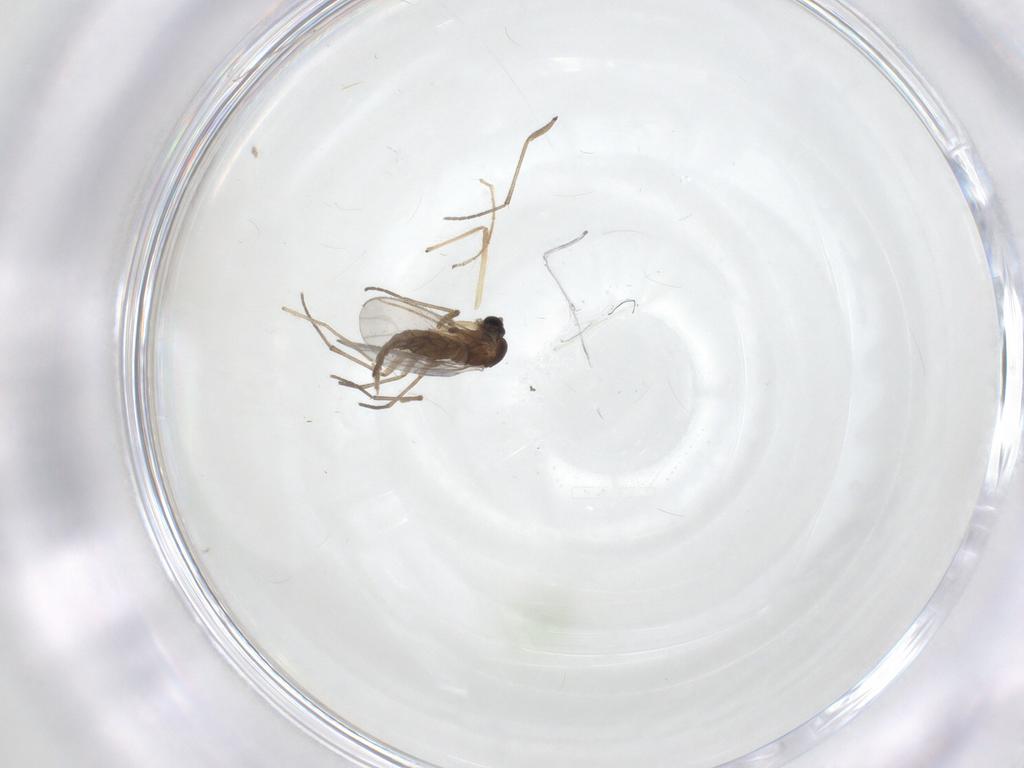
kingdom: Animalia
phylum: Arthropoda
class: Insecta
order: Diptera
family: Sciaridae
